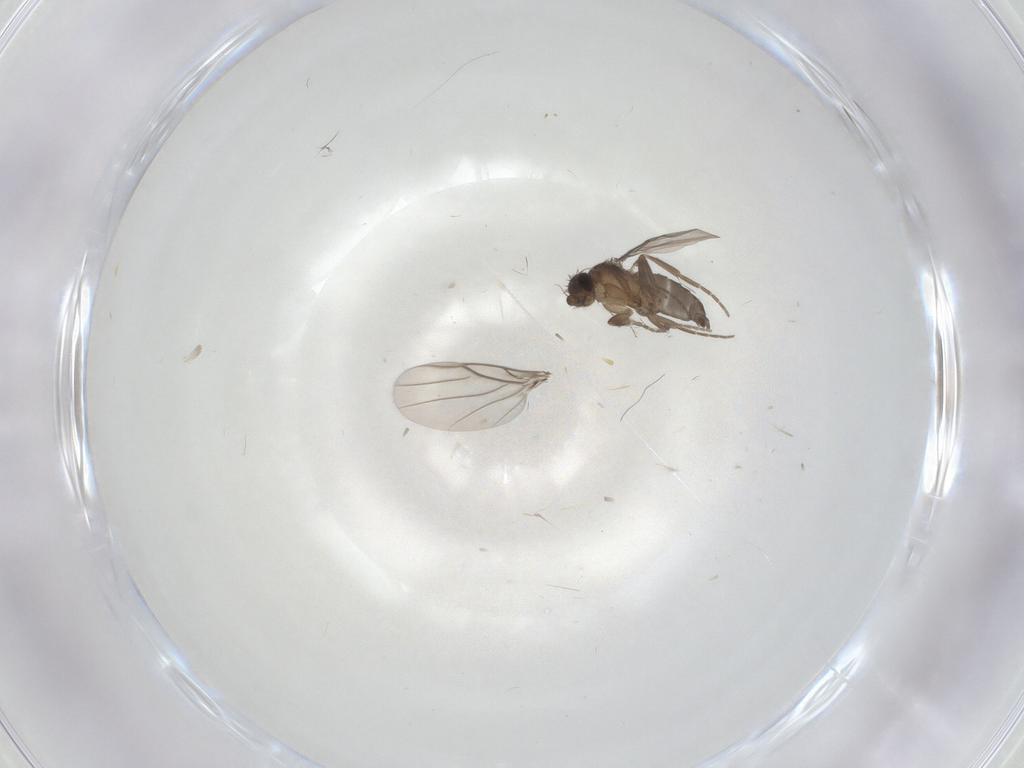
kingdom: Animalia
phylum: Arthropoda
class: Insecta
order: Diptera
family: Phoridae
